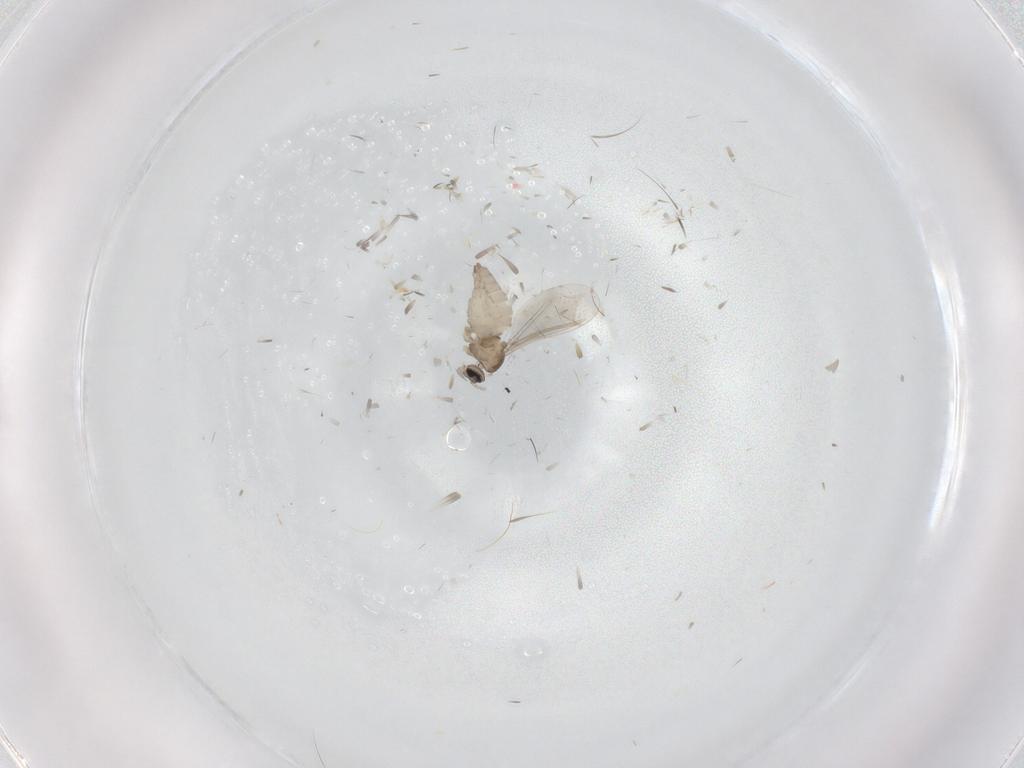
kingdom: Animalia
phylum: Arthropoda
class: Insecta
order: Diptera
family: Cecidomyiidae
